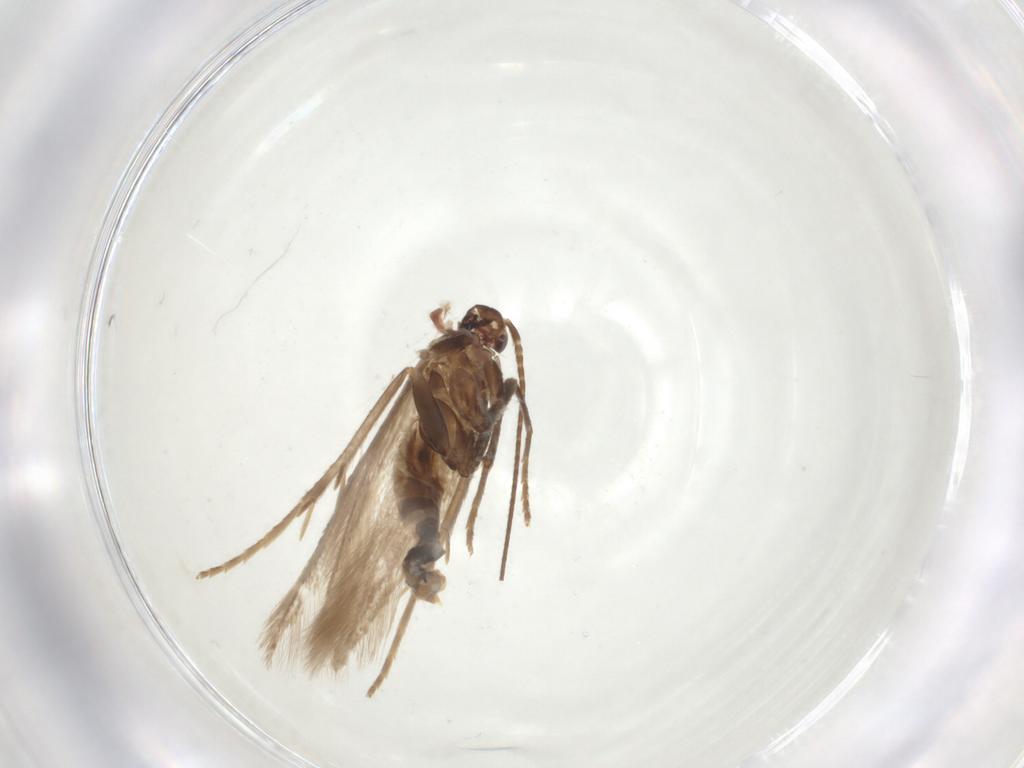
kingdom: Animalia
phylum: Arthropoda
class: Insecta
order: Lepidoptera
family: Coleophoridae
